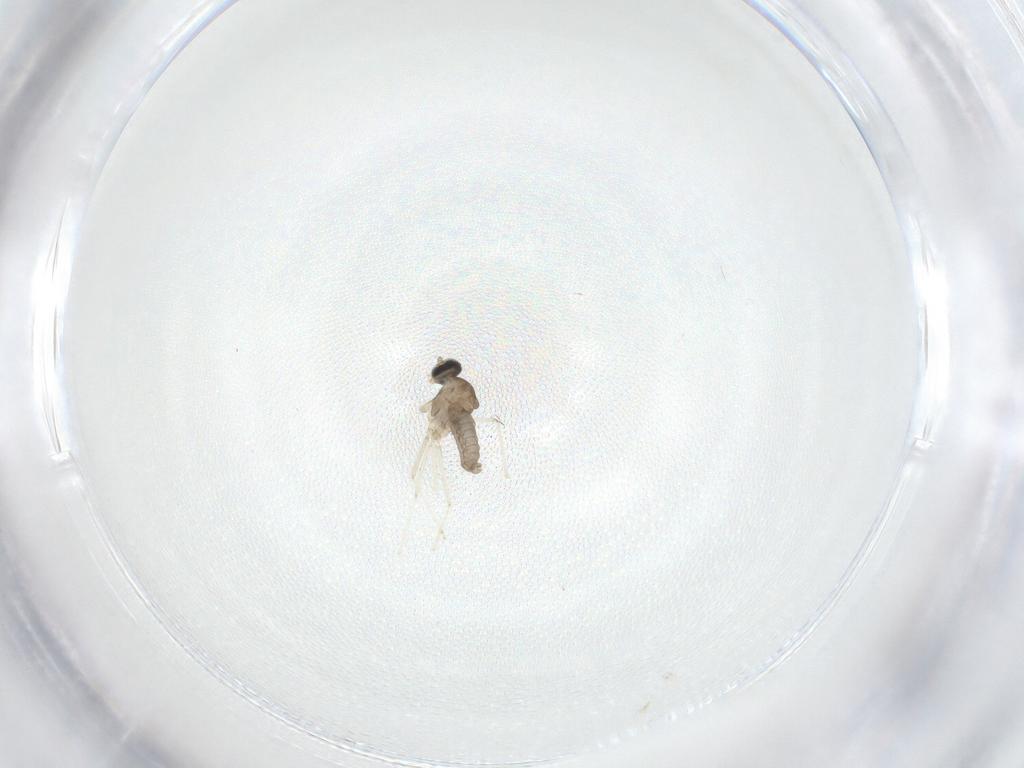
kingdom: Animalia
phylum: Arthropoda
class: Insecta
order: Diptera
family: Cecidomyiidae
